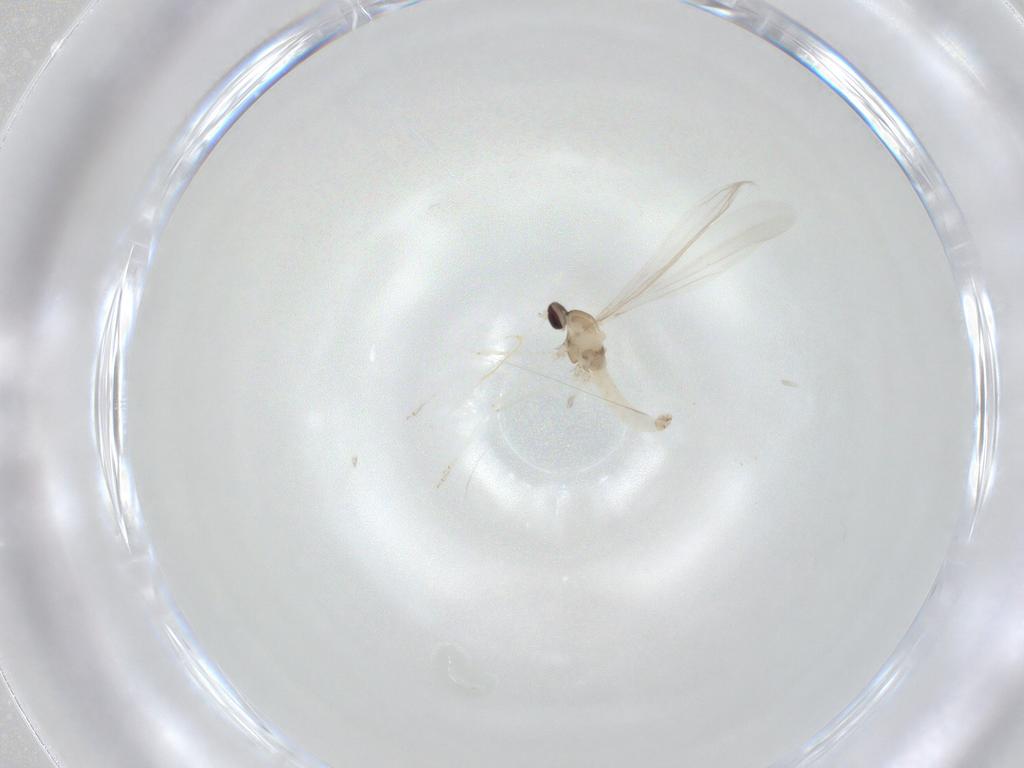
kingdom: Animalia
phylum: Arthropoda
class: Insecta
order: Diptera
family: Cecidomyiidae
